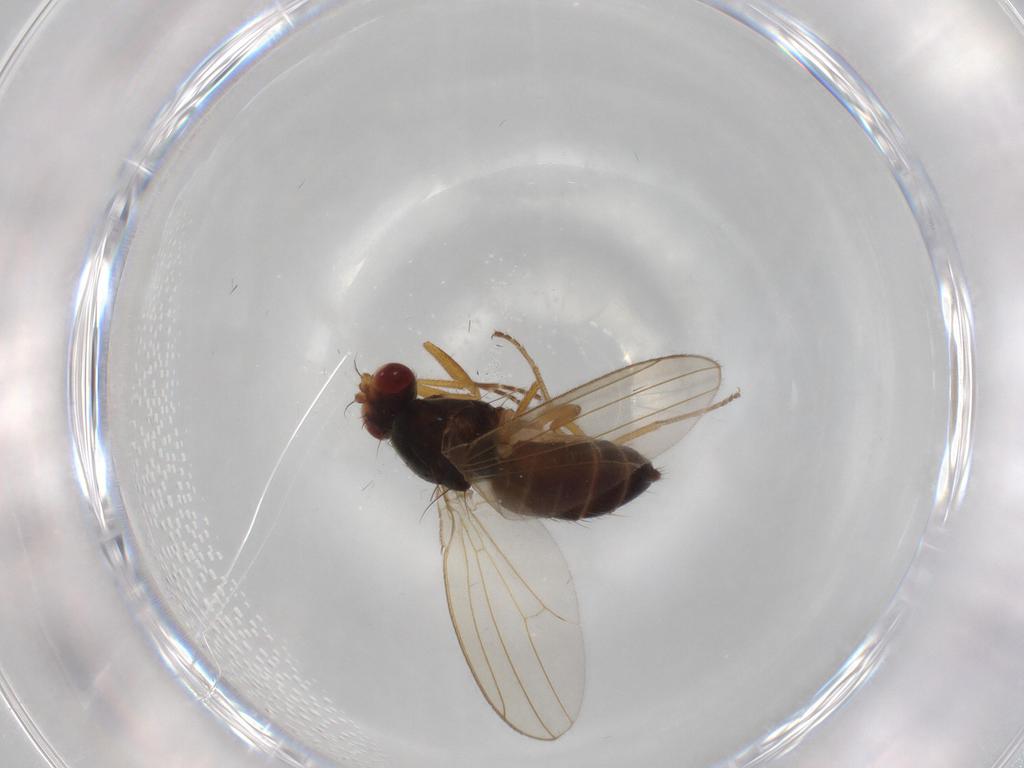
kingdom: Animalia
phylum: Arthropoda
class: Insecta
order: Diptera
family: Drosophilidae
